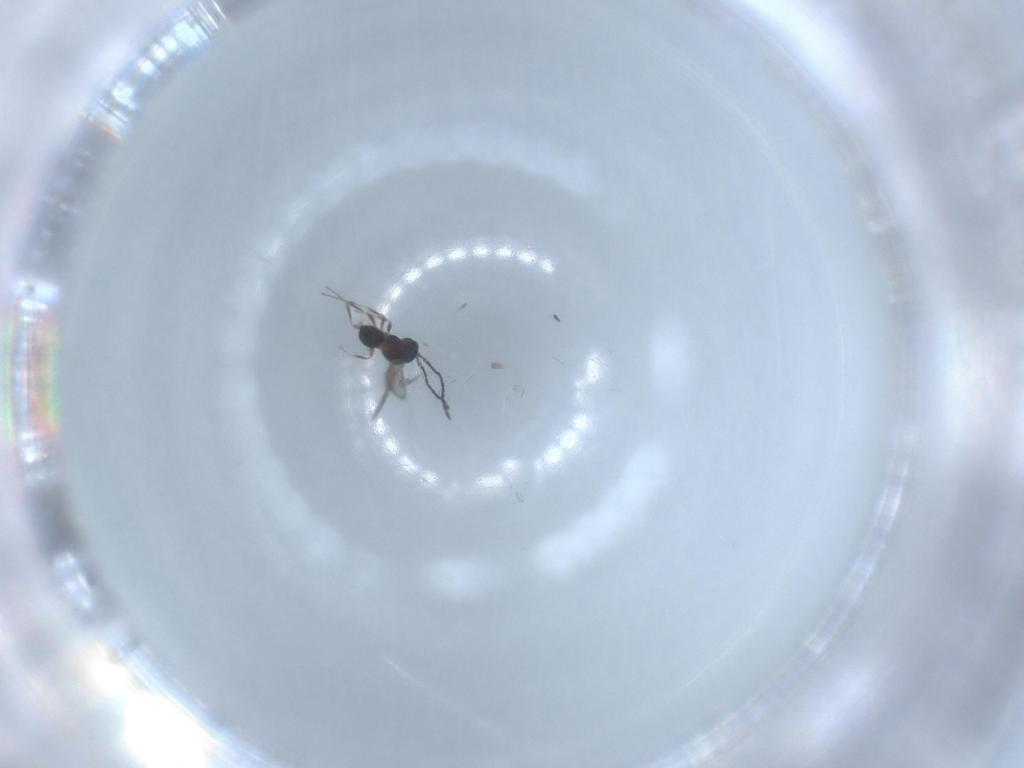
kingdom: Animalia
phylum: Arthropoda
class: Insecta
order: Hymenoptera
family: Scelionidae
